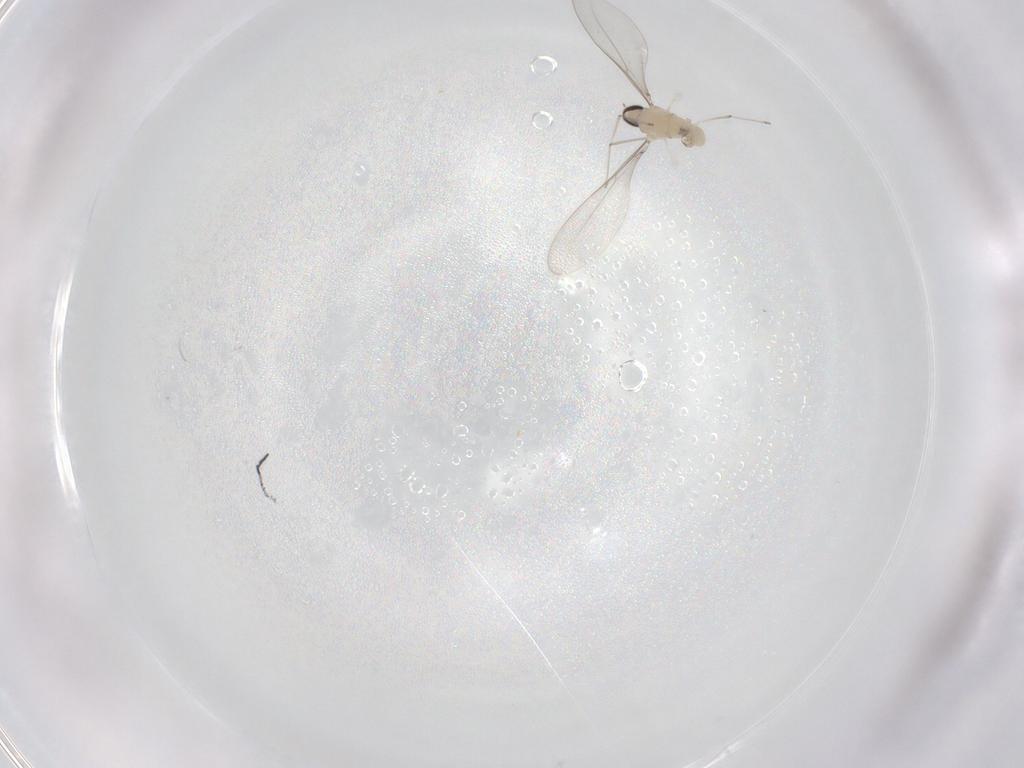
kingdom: Animalia
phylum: Arthropoda
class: Insecta
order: Diptera
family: Cecidomyiidae
